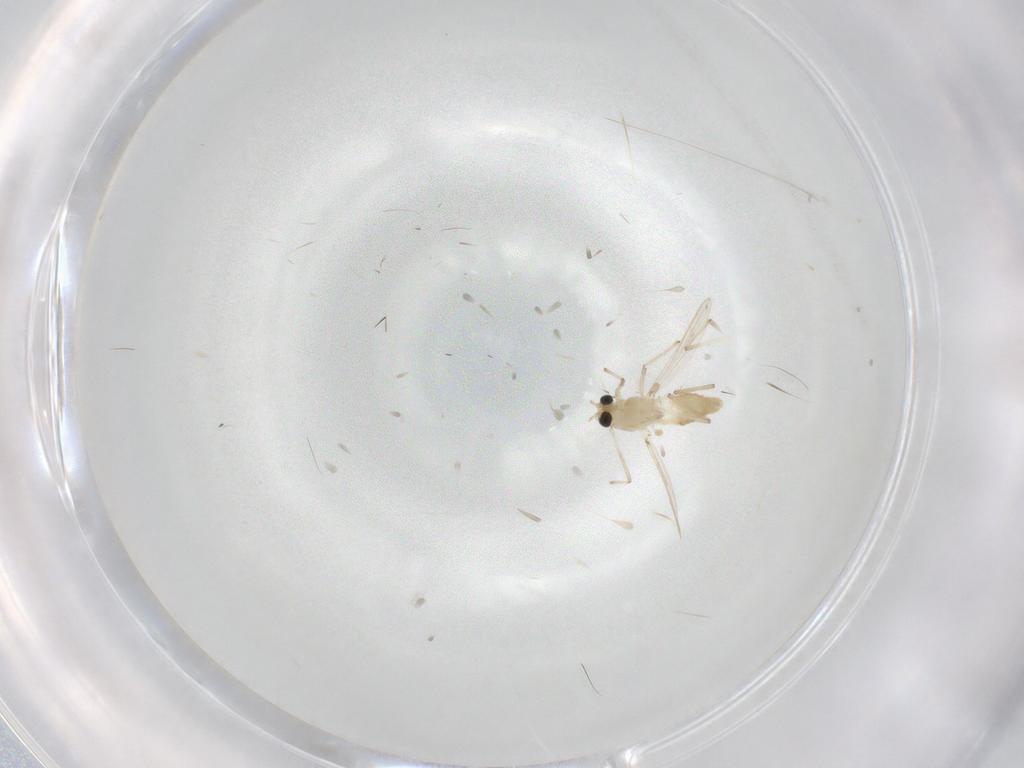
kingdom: Animalia
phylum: Arthropoda
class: Insecta
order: Diptera
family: Chironomidae
